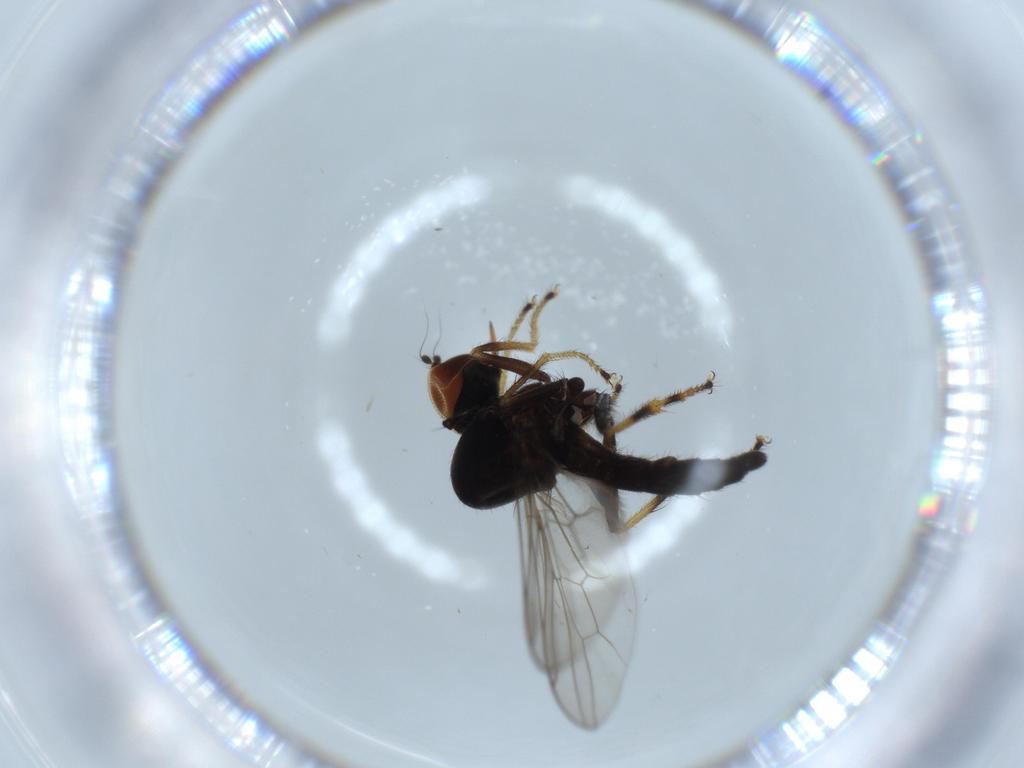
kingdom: Animalia
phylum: Arthropoda
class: Insecta
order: Diptera
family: Hybotidae
